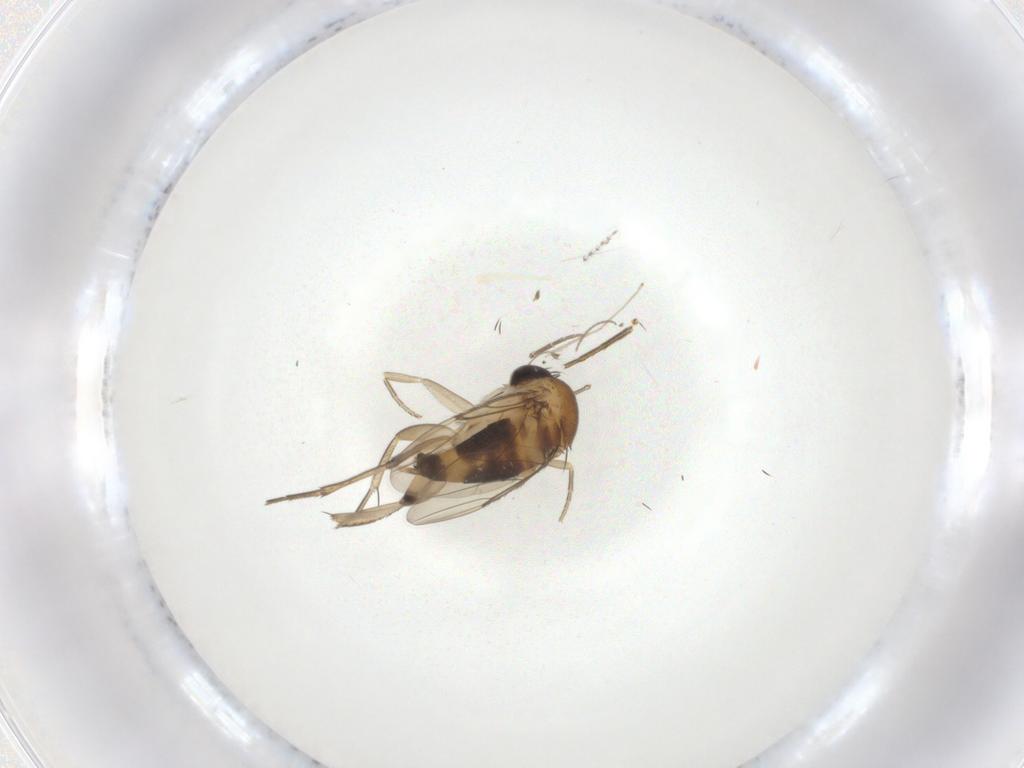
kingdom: Animalia
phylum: Arthropoda
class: Insecta
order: Diptera
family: Phoridae
